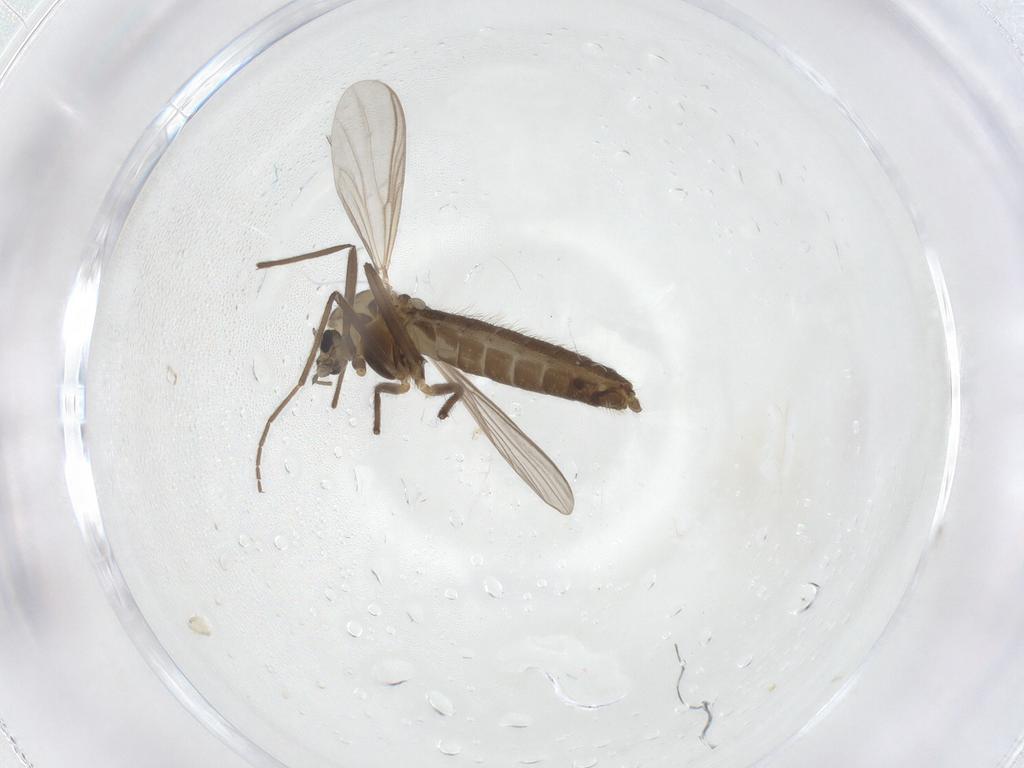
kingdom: Animalia
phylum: Arthropoda
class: Insecta
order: Diptera
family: Chironomidae
